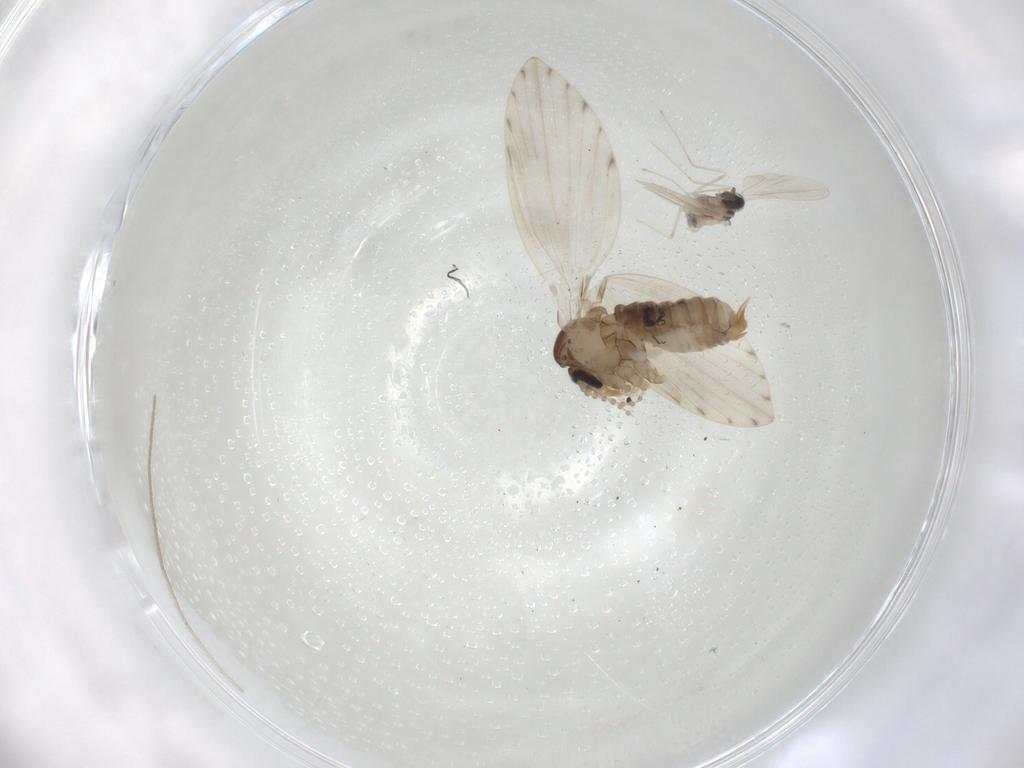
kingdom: Animalia
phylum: Arthropoda
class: Insecta
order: Diptera
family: Psychodidae
